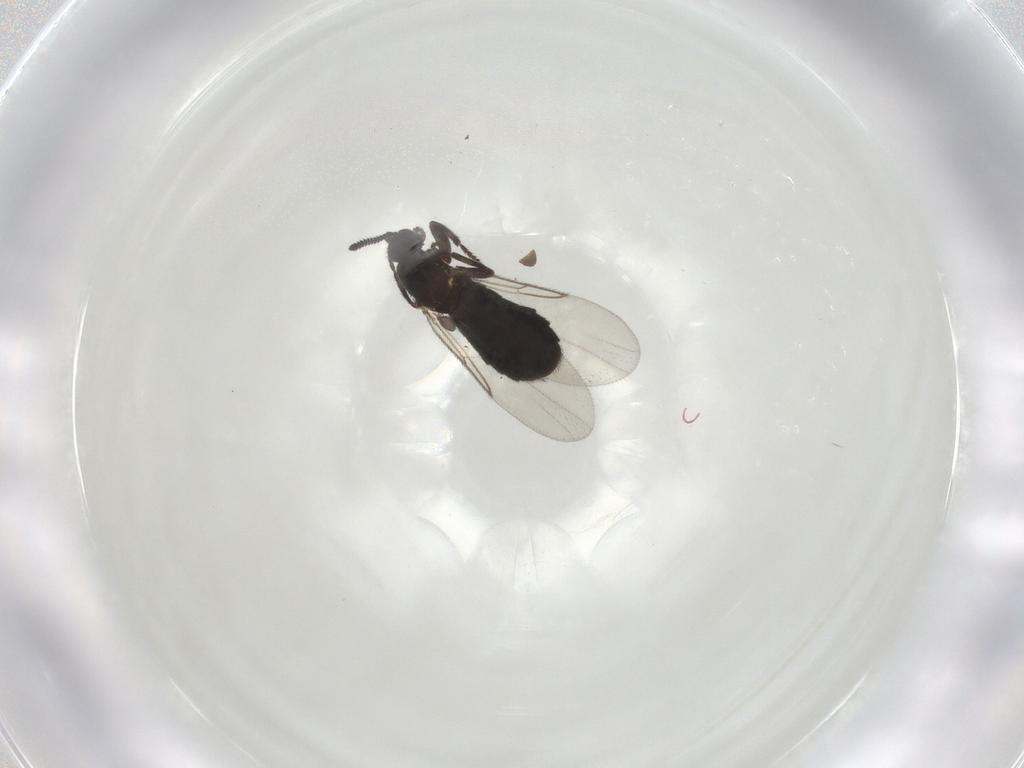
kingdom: Animalia
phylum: Arthropoda
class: Insecta
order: Diptera
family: Scatopsidae
